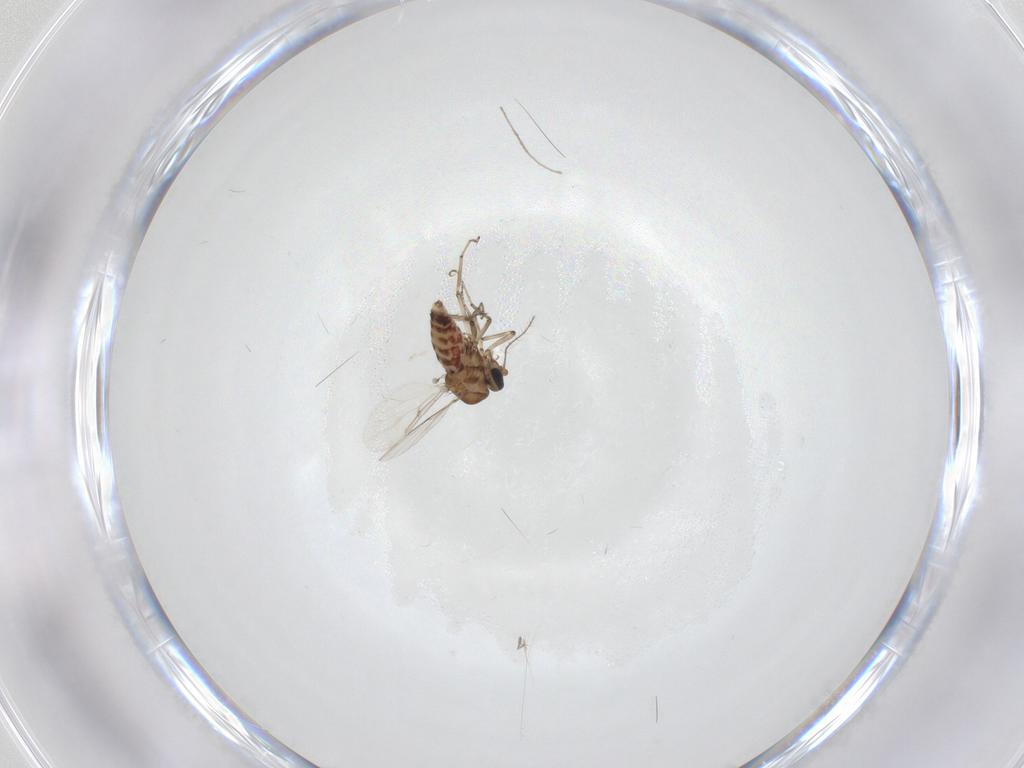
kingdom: Animalia
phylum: Arthropoda
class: Insecta
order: Diptera
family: Ceratopogonidae
